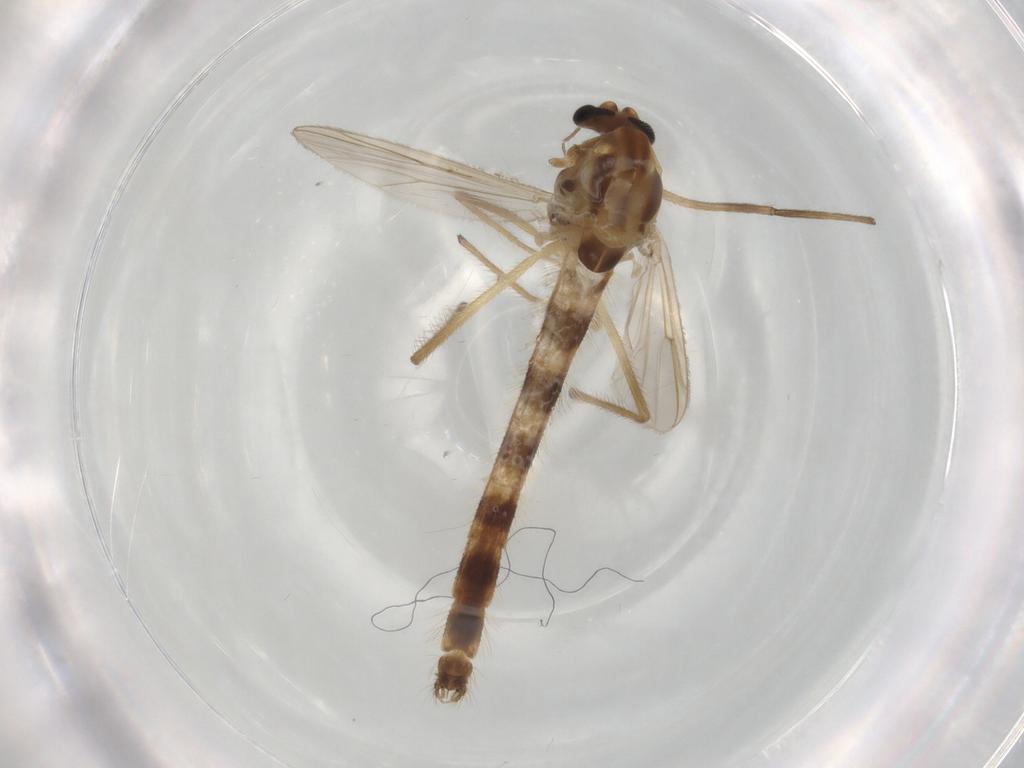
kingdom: Animalia
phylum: Arthropoda
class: Insecta
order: Diptera
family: Chironomidae
